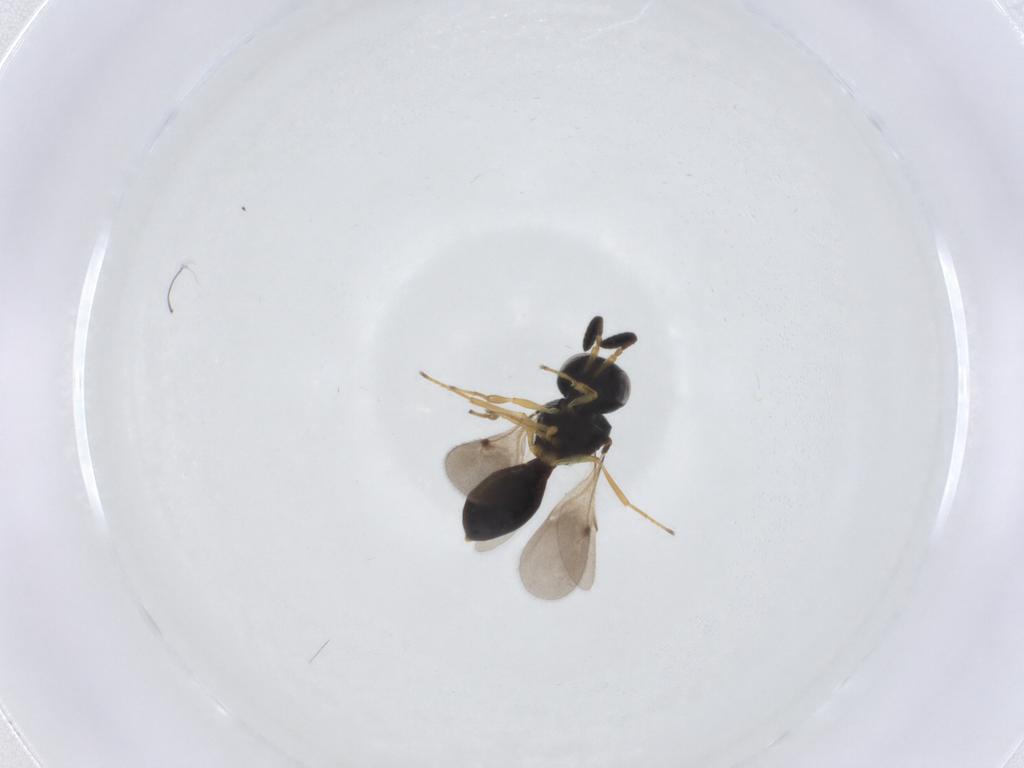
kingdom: Animalia
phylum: Arthropoda
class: Insecta
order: Hymenoptera
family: Scelionidae
